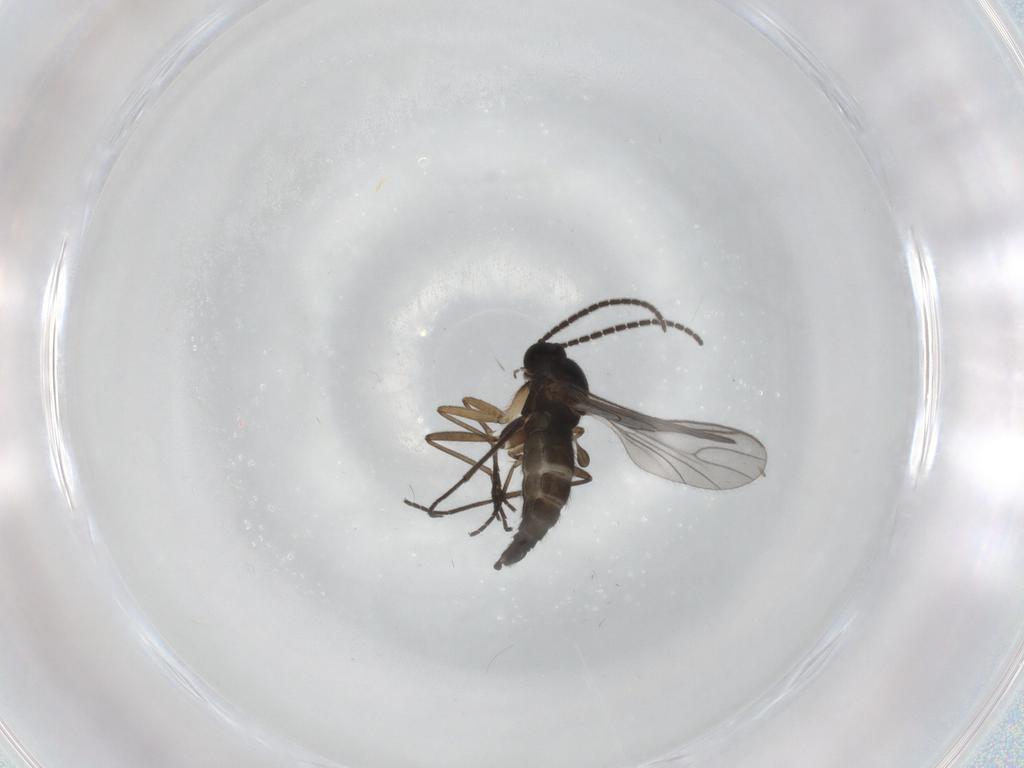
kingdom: Animalia
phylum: Arthropoda
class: Insecta
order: Diptera
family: Sciaridae
